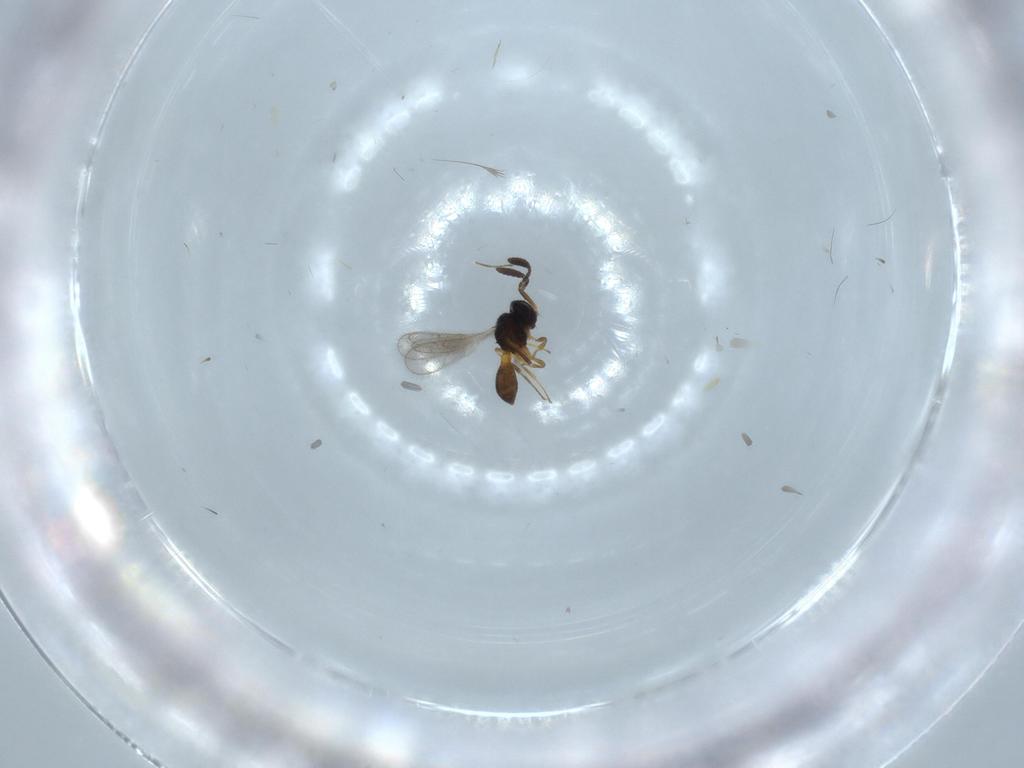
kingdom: Animalia
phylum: Arthropoda
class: Insecta
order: Hymenoptera
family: Scelionidae
